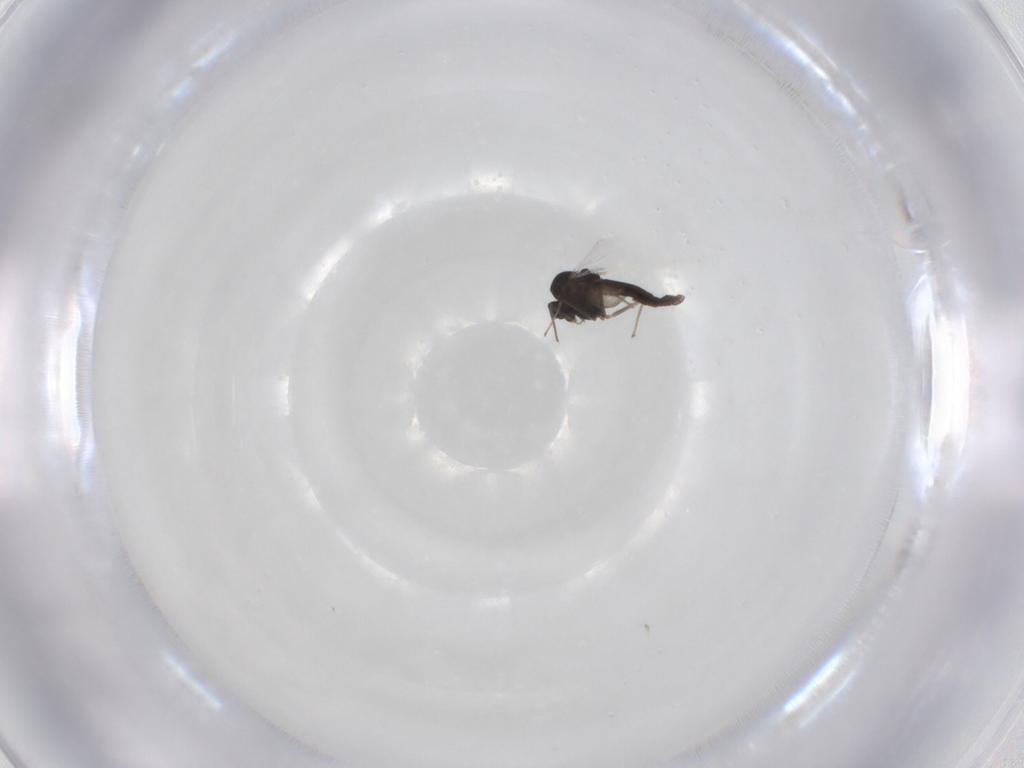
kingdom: Animalia
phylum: Arthropoda
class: Insecta
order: Diptera
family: Chironomidae
